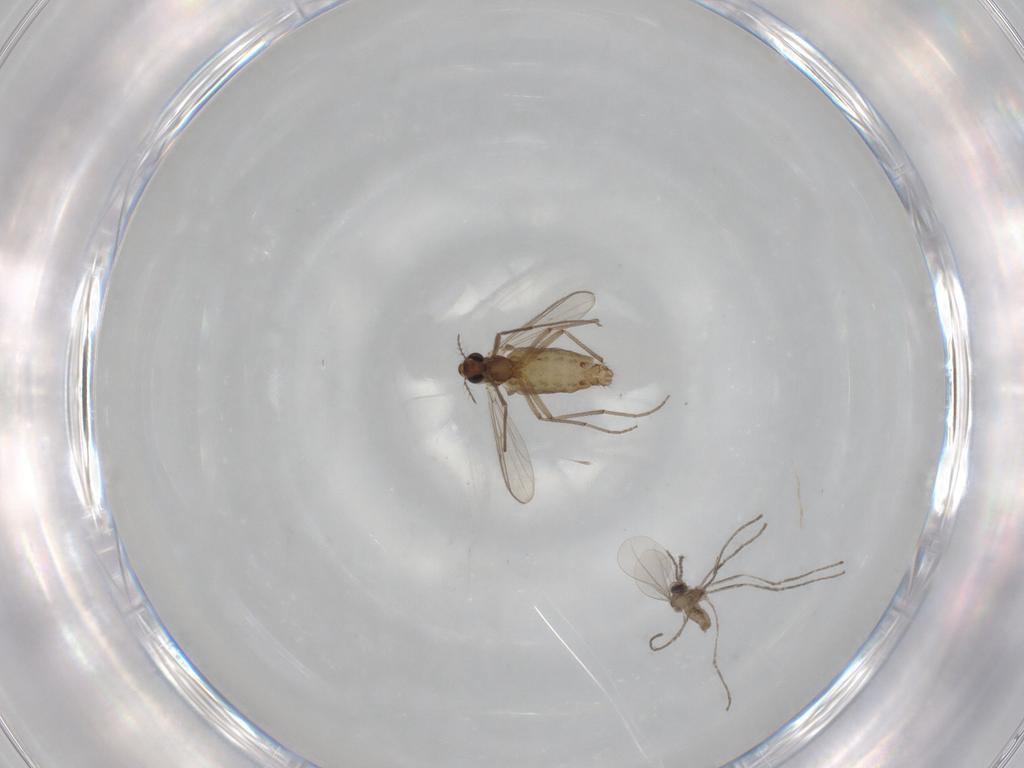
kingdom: Animalia
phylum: Arthropoda
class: Insecta
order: Diptera
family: Chironomidae
